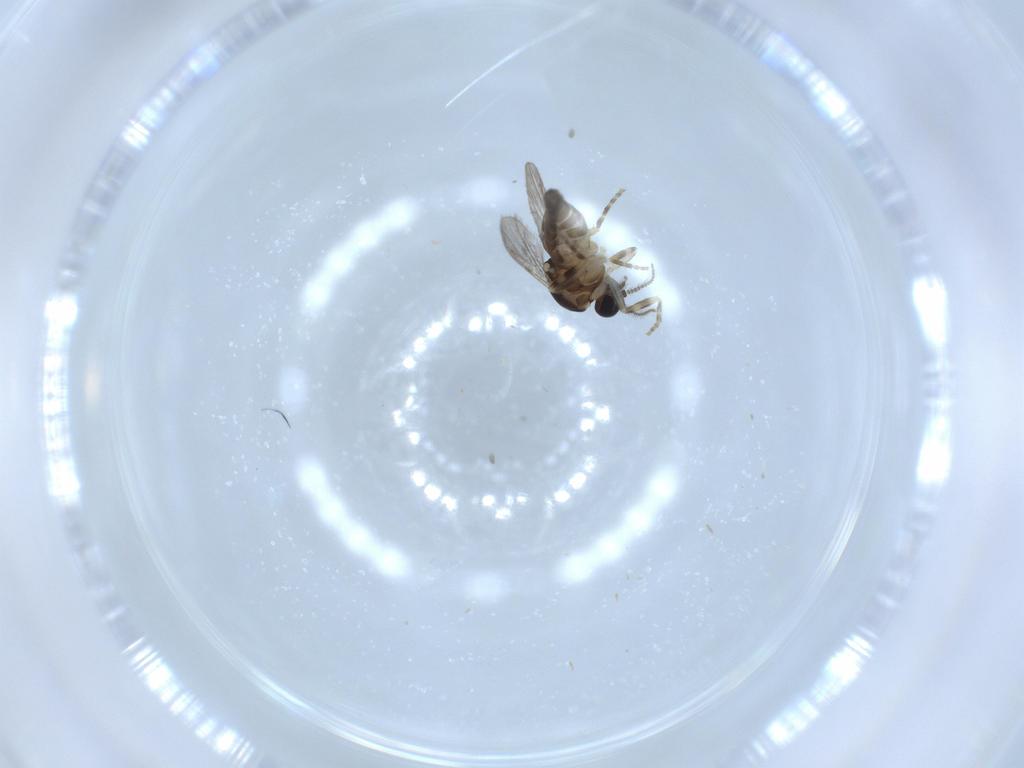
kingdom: Animalia
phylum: Arthropoda
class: Insecta
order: Diptera
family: Ceratopogonidae
